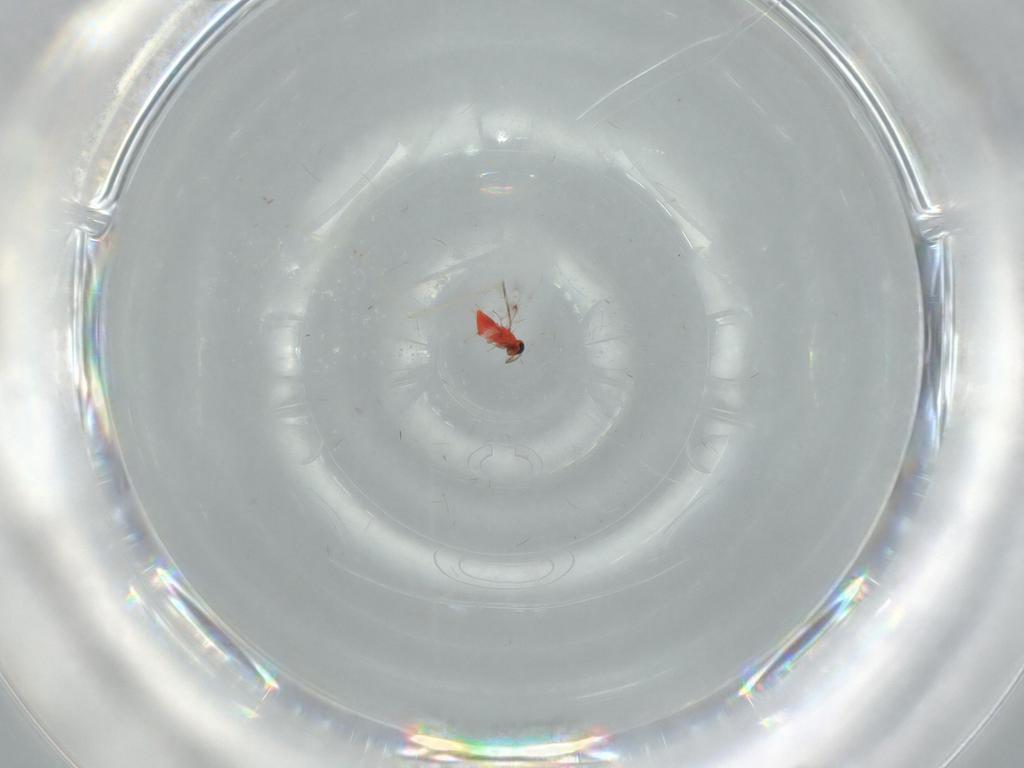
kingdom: Animalia
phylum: Arthropoda
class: Insecta
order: Hymenoptera
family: Trichogrammatidae
